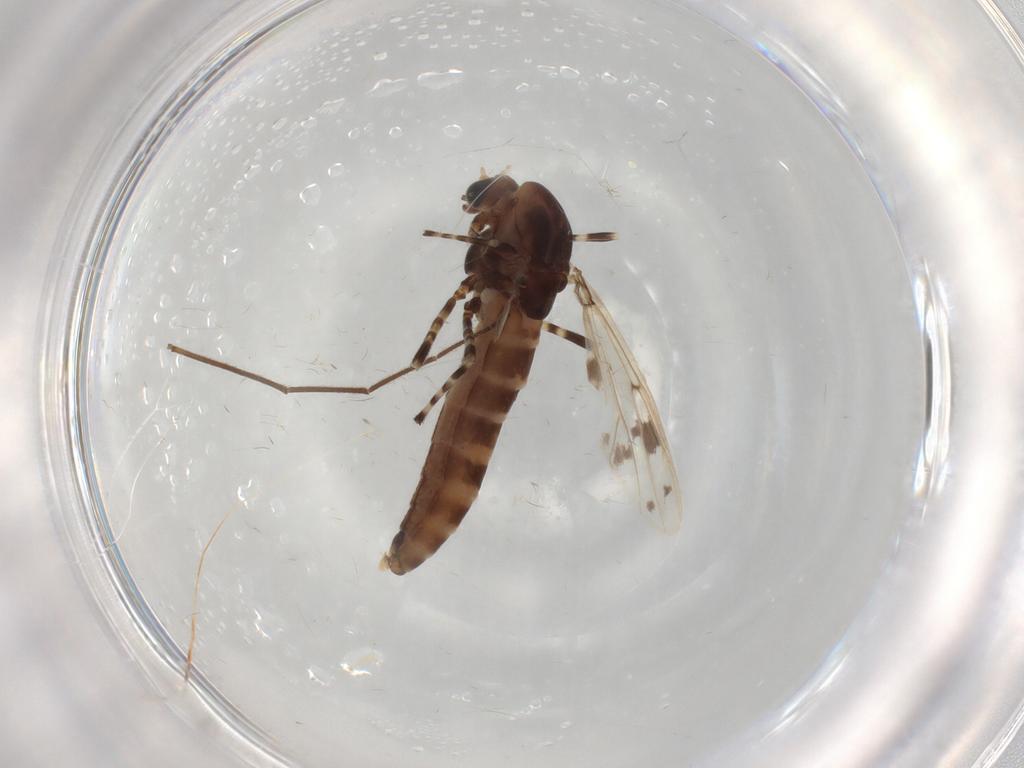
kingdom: Animalia
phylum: Arthropoda
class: Insecta
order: Diptera
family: Chironomidae
